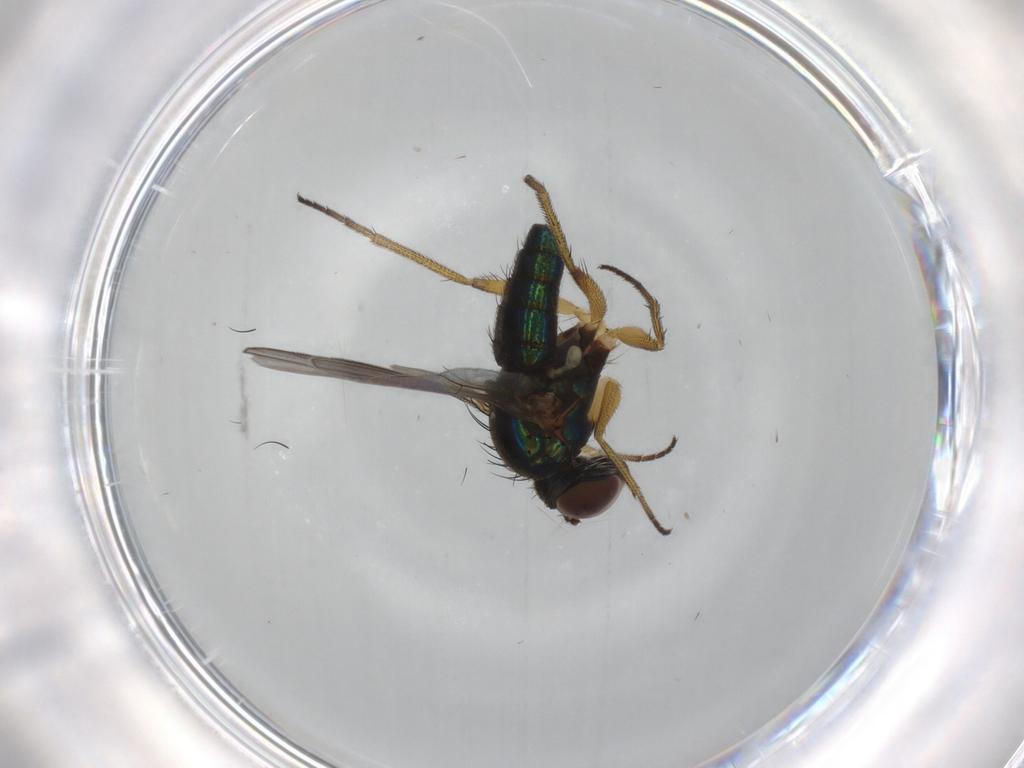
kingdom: Animalia
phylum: Arthropoda
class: Insecta
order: Diptera
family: Dolichopodidae
